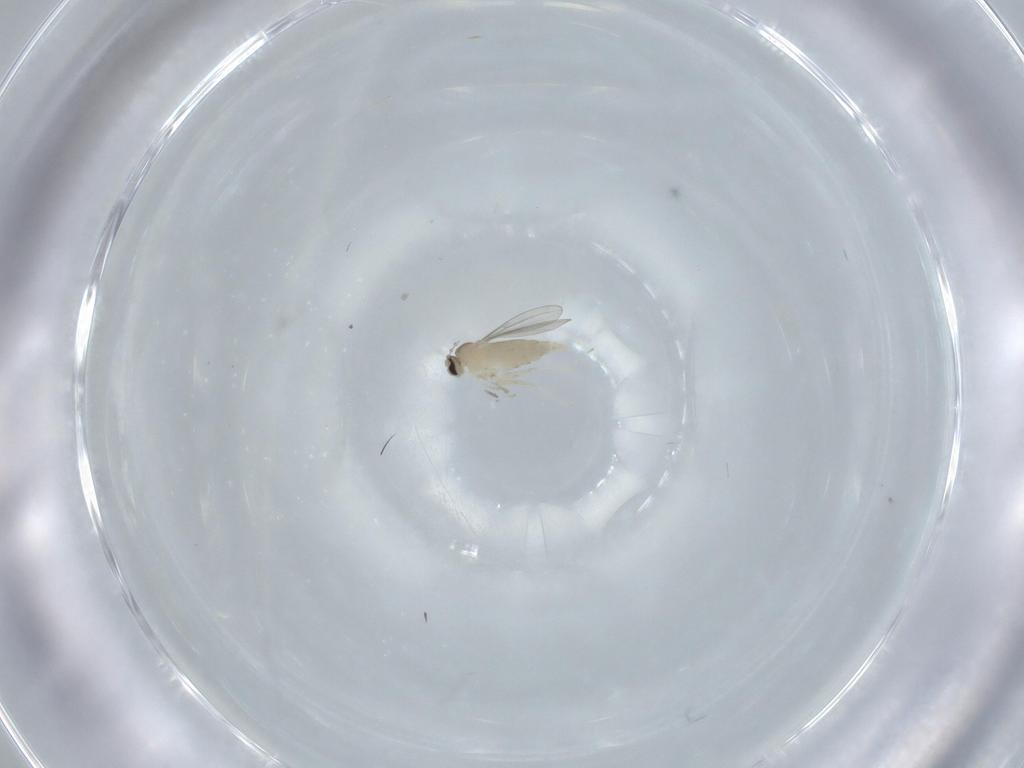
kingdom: Animalia
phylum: Arthropoda
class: Insecta
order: Diptera
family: Cecidomyiidae
